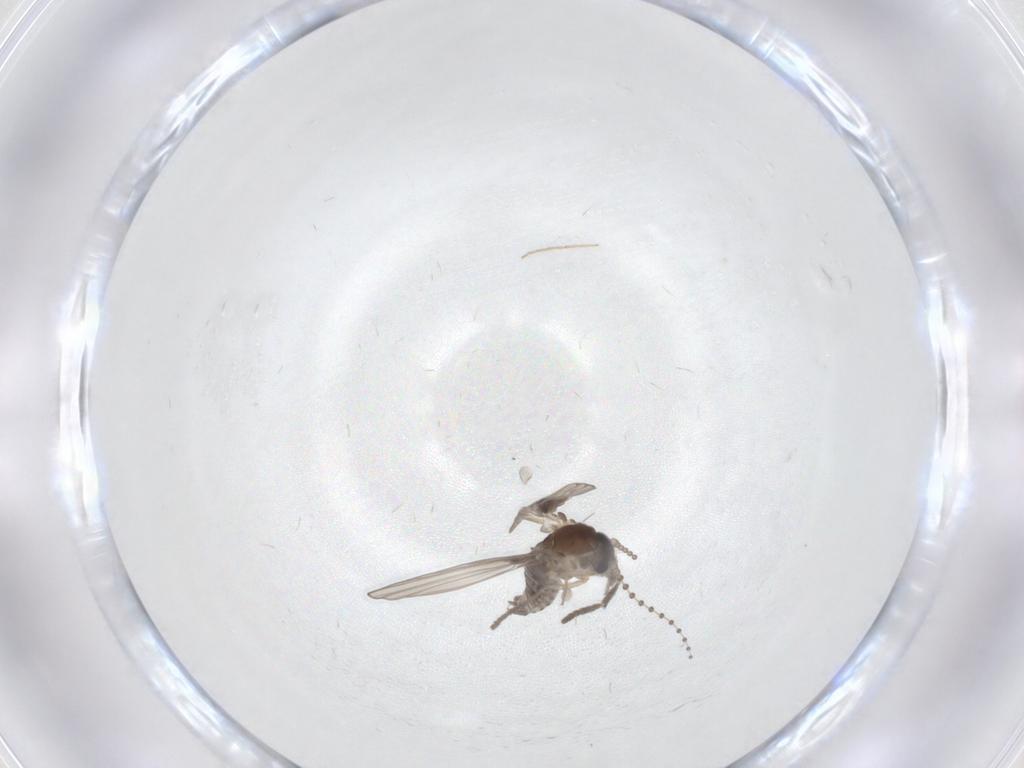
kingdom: Animalia
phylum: Arthropoda
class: Insecta
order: Diptera
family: Psychodidae
